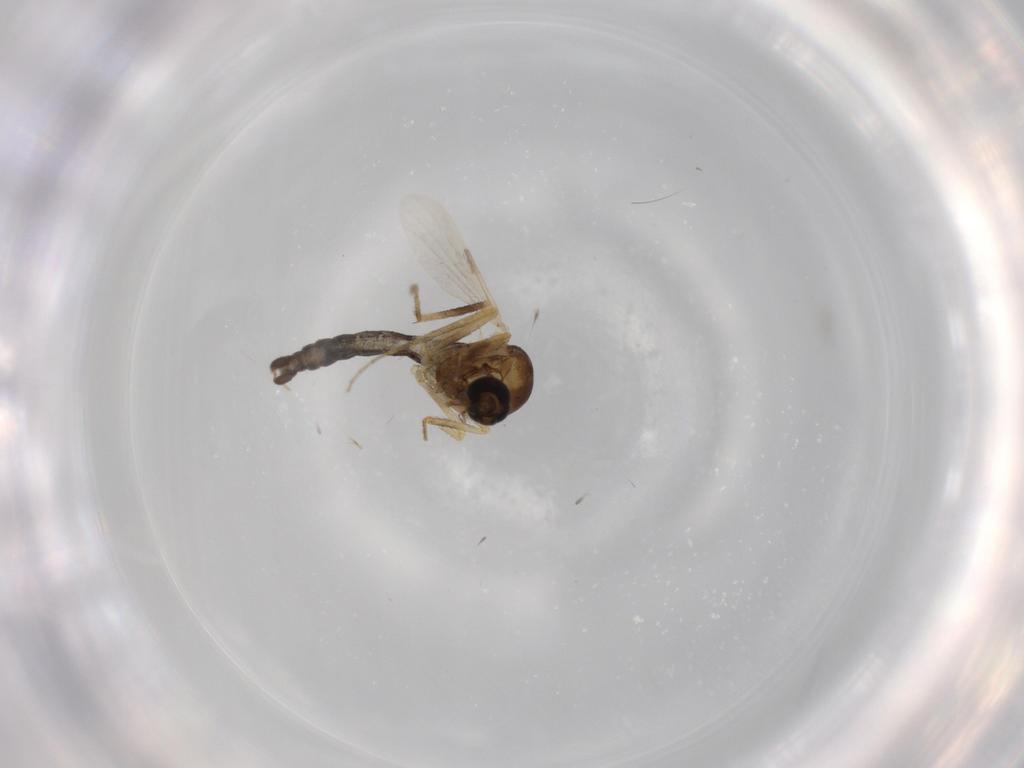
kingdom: Animalia
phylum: Arthropoda
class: Insecta
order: Diptera
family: Ceratopogonidae
